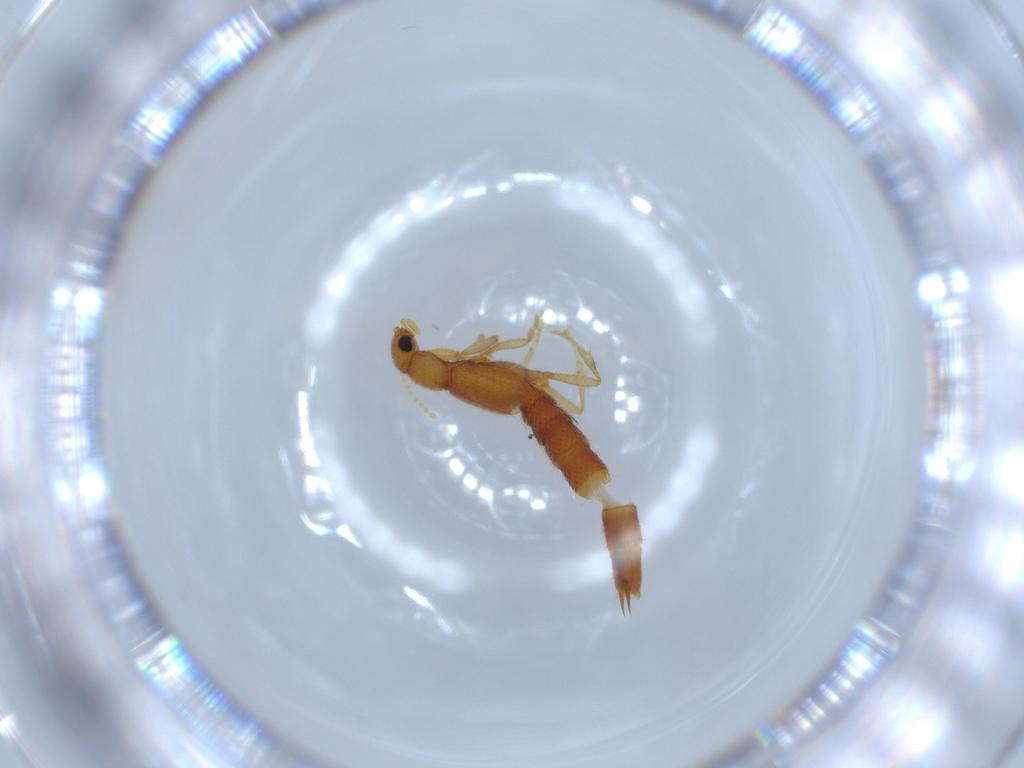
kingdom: Animalia
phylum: Arthropoda
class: Insecta
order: Coleoptera
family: Staphylinidae
